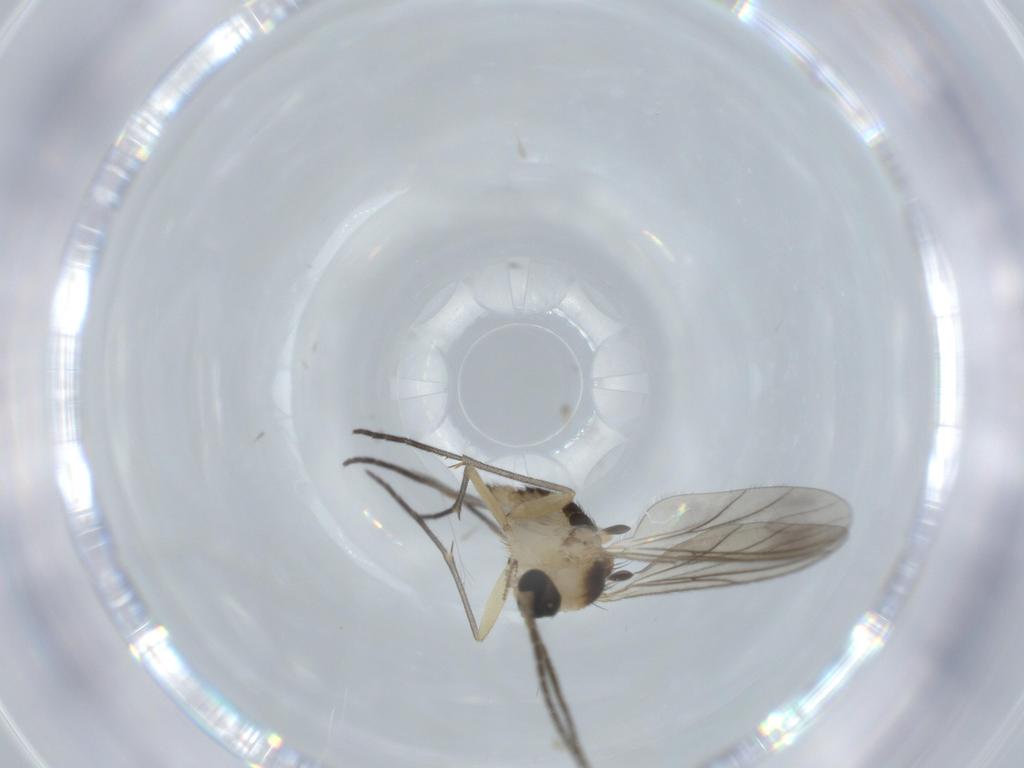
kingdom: Animalia
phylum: Arthropoda
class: Insecta
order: Diptera
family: Sciaridae
